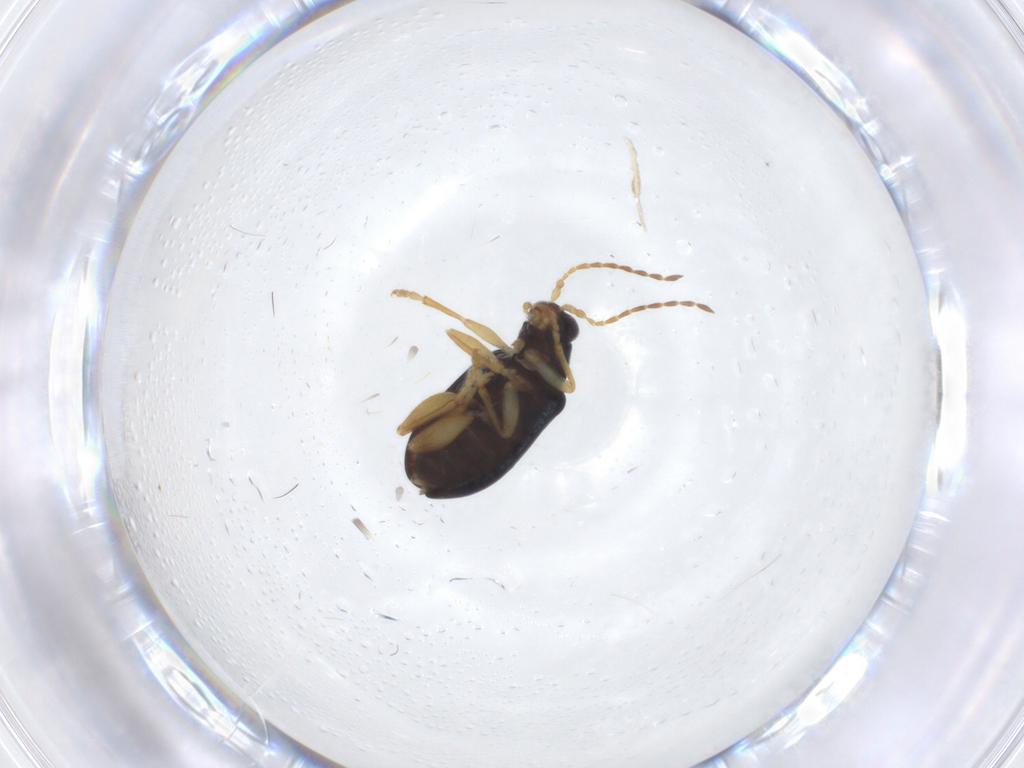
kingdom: Animalia
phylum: Arthropoda
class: Insecta
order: Coleoptera
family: Chrysomelidae
